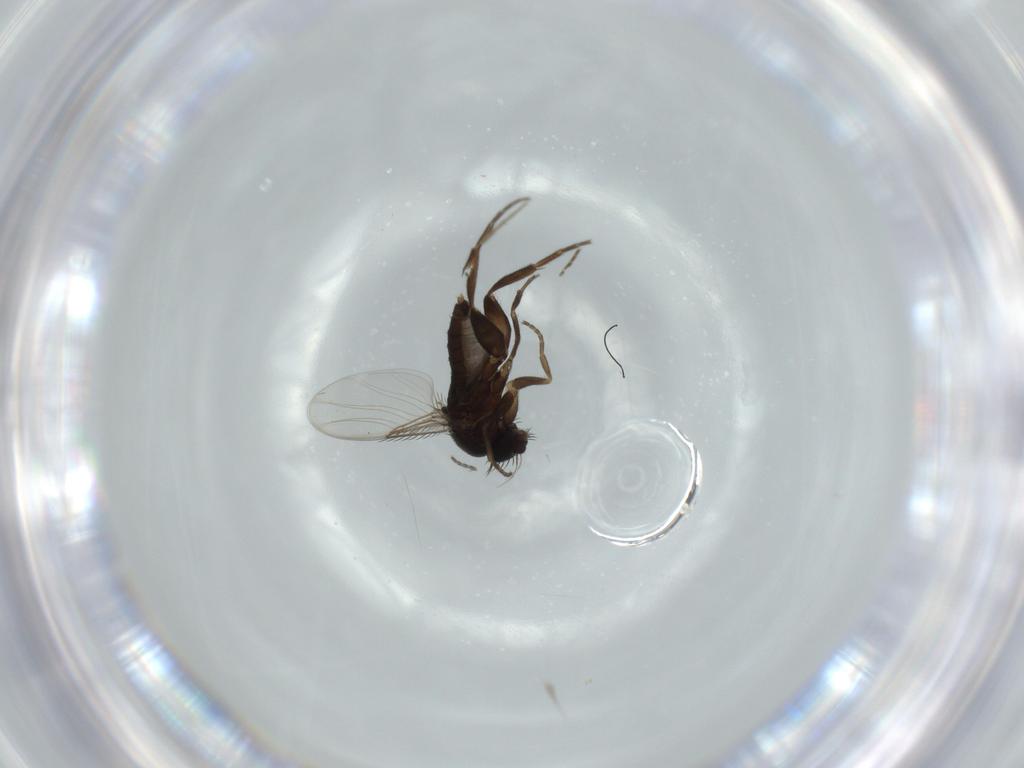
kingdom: Animalia
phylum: Arthropoda
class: Insecta
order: Diptera
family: Phoridae
